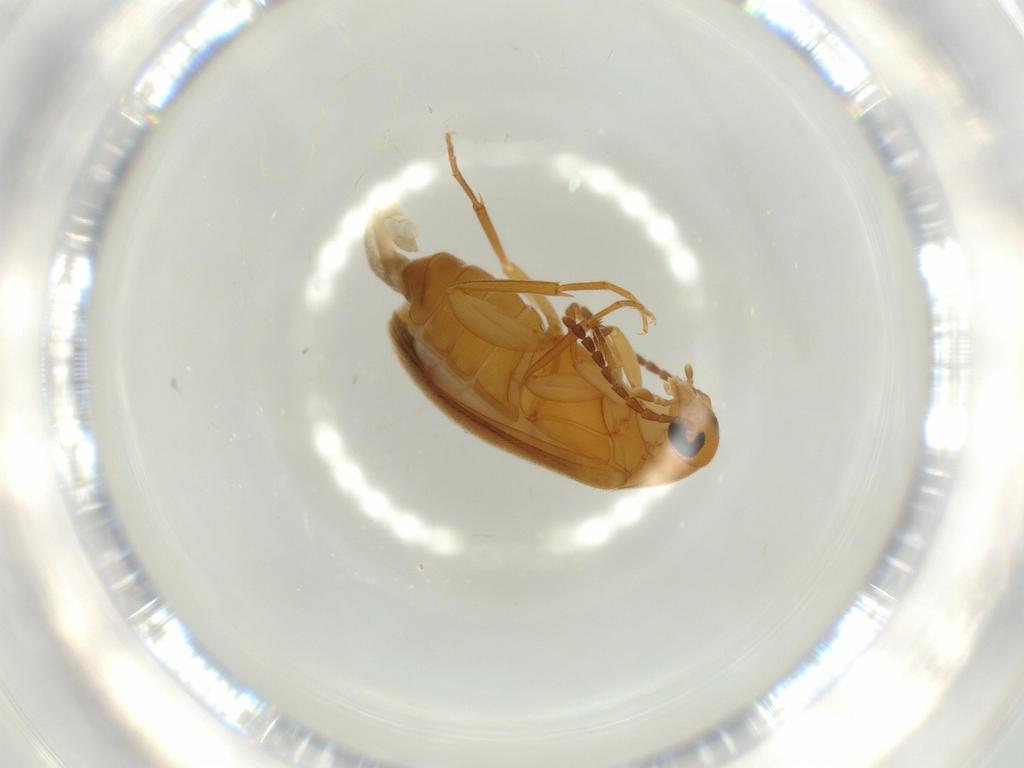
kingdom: Animalia
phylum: Arthropoda
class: Insecta
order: Coleoptera
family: Scraptiidae
